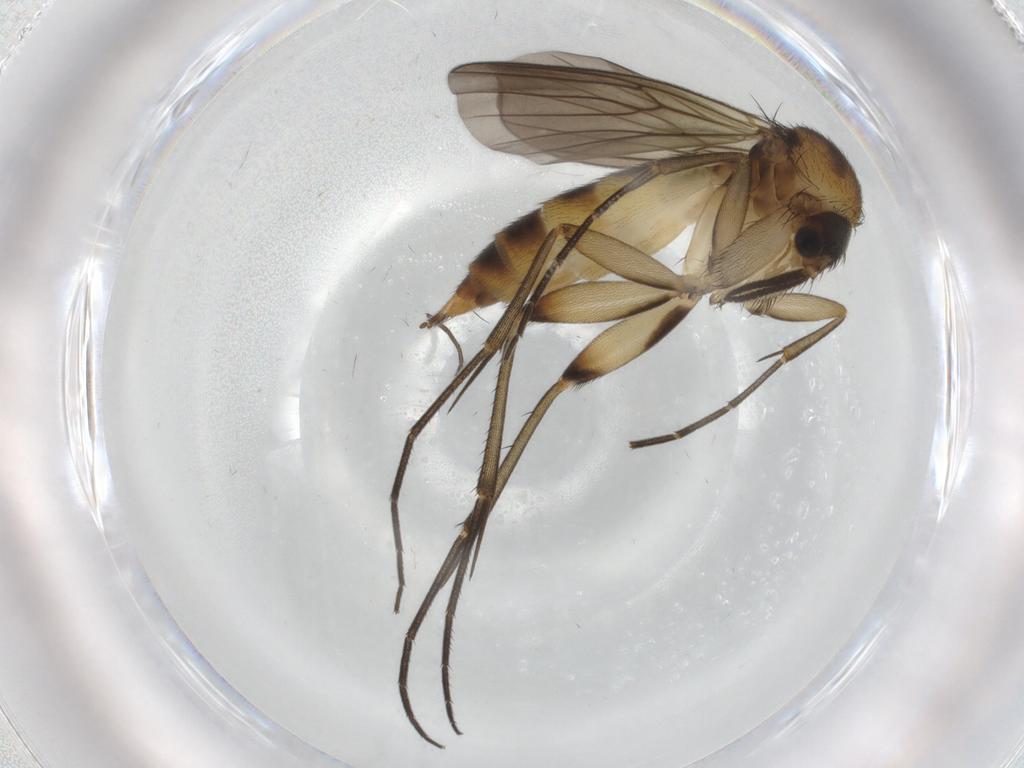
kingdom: Animalia
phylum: Arthropoda
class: Insecta
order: Diptera
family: Mycetophilidae
